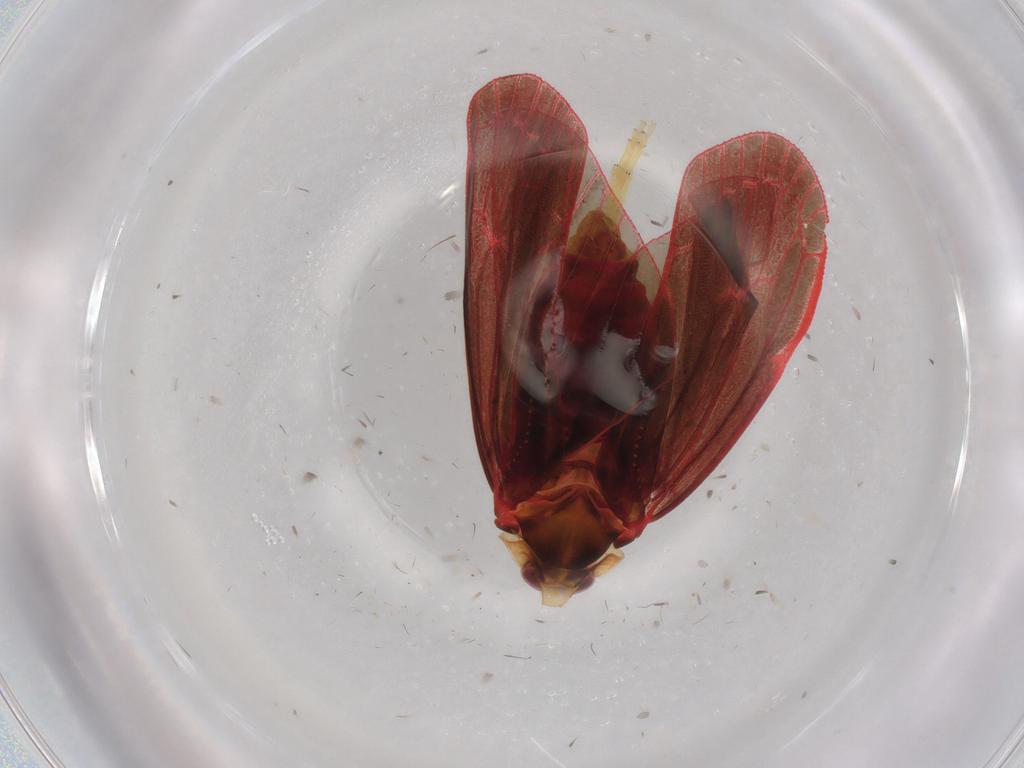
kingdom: Animalia
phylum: Arthropoda
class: Insecta
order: Hemiptera
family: Derbidae
